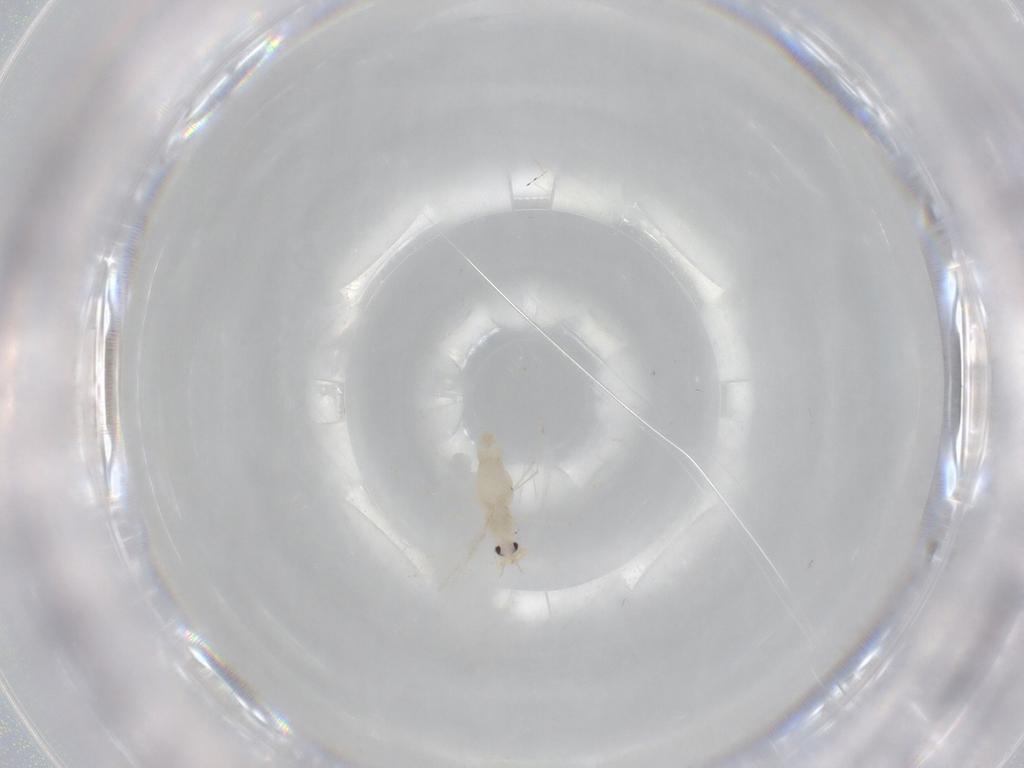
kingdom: Animalia
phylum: Arthropoda
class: Insecta
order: Diptera
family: Cecidomyiidae
